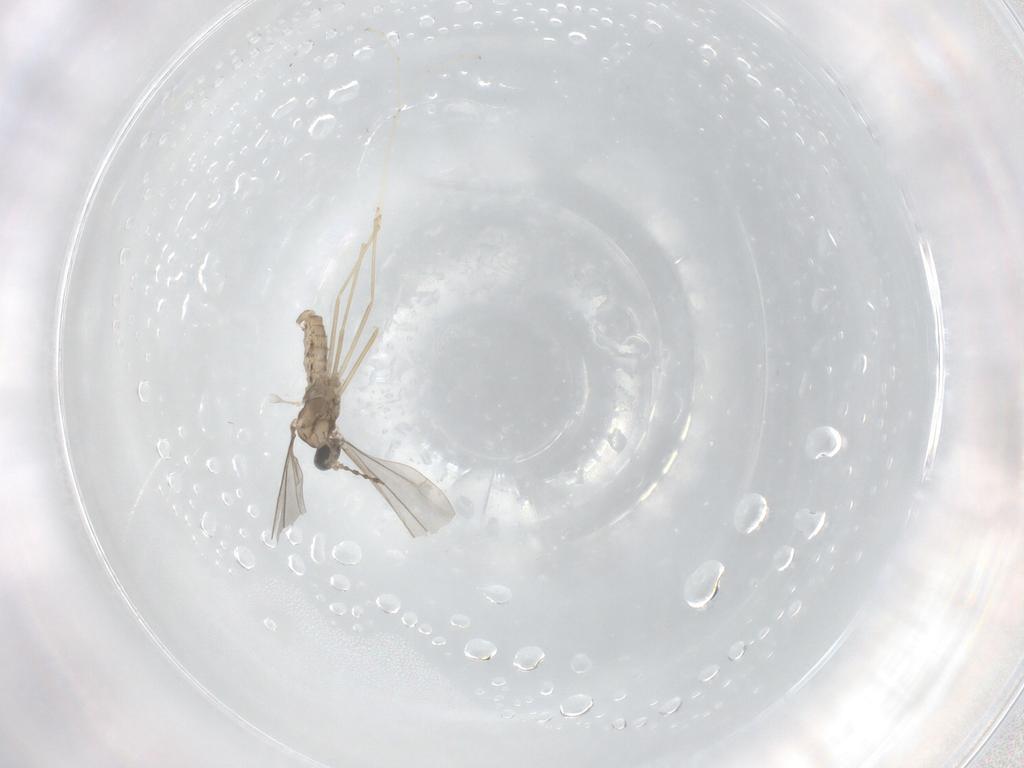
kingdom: Animalia
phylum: Arthropoda
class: Insecta
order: Diptera
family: Cecidomyiidae
